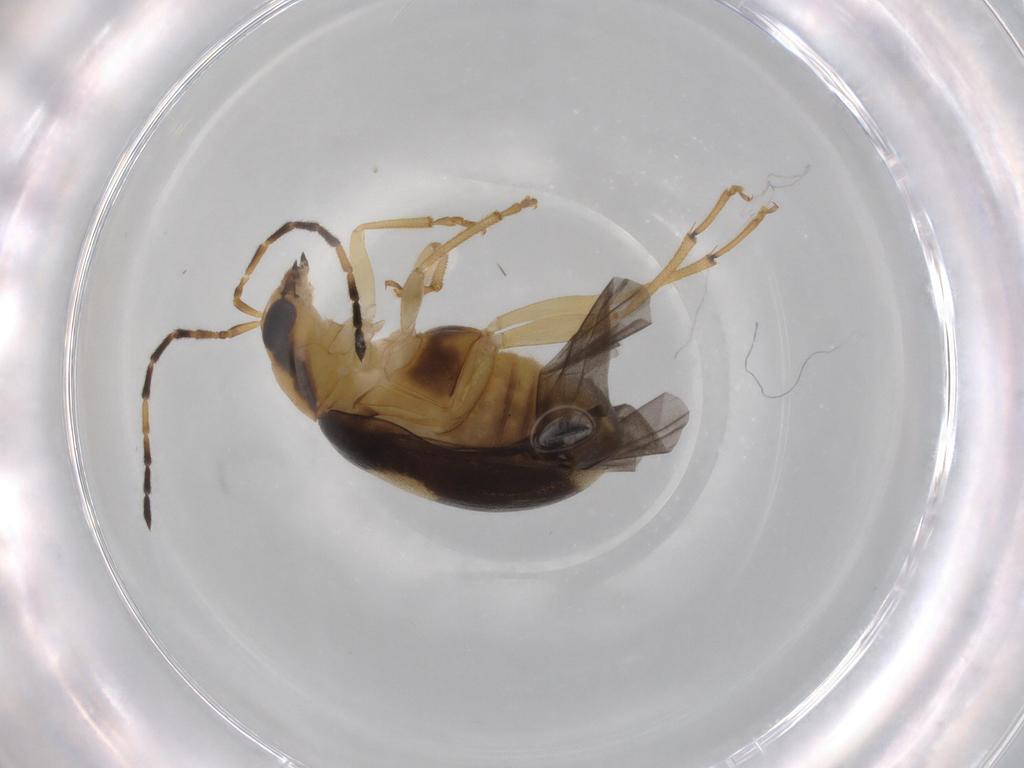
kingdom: Animalia
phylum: Arthropoda
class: Insecta
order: Coleoptera
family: Chrysomelidae
